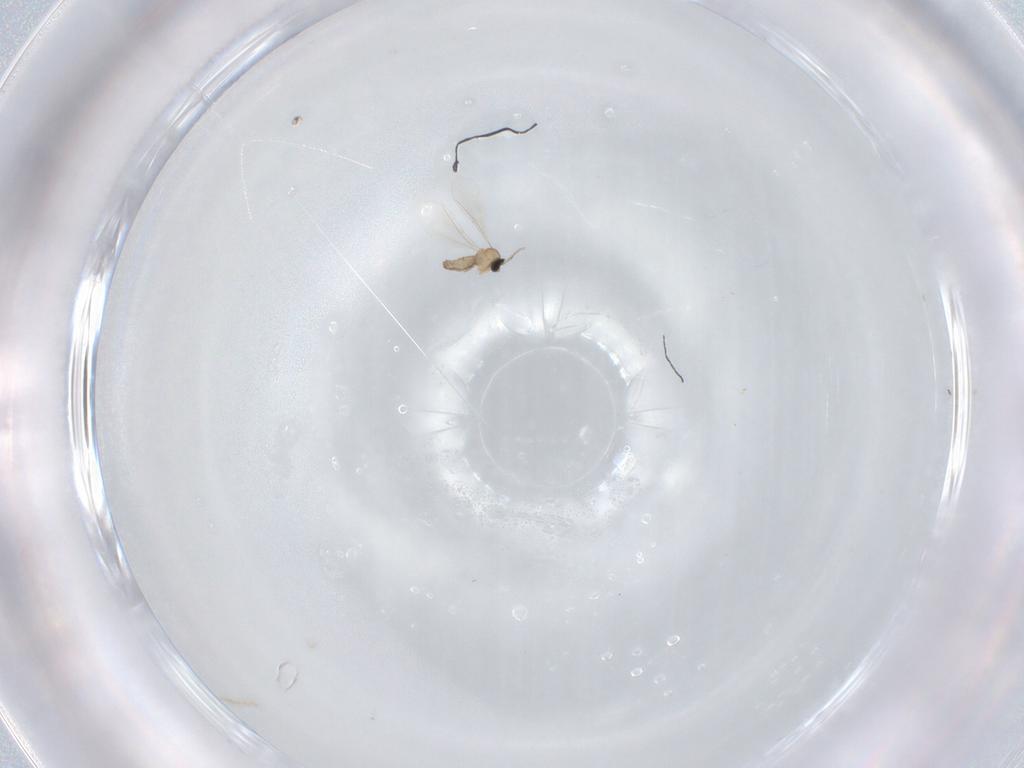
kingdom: Animalia
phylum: Arthropoda
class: Insecta
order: Diptera
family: Cecidomyiidae
